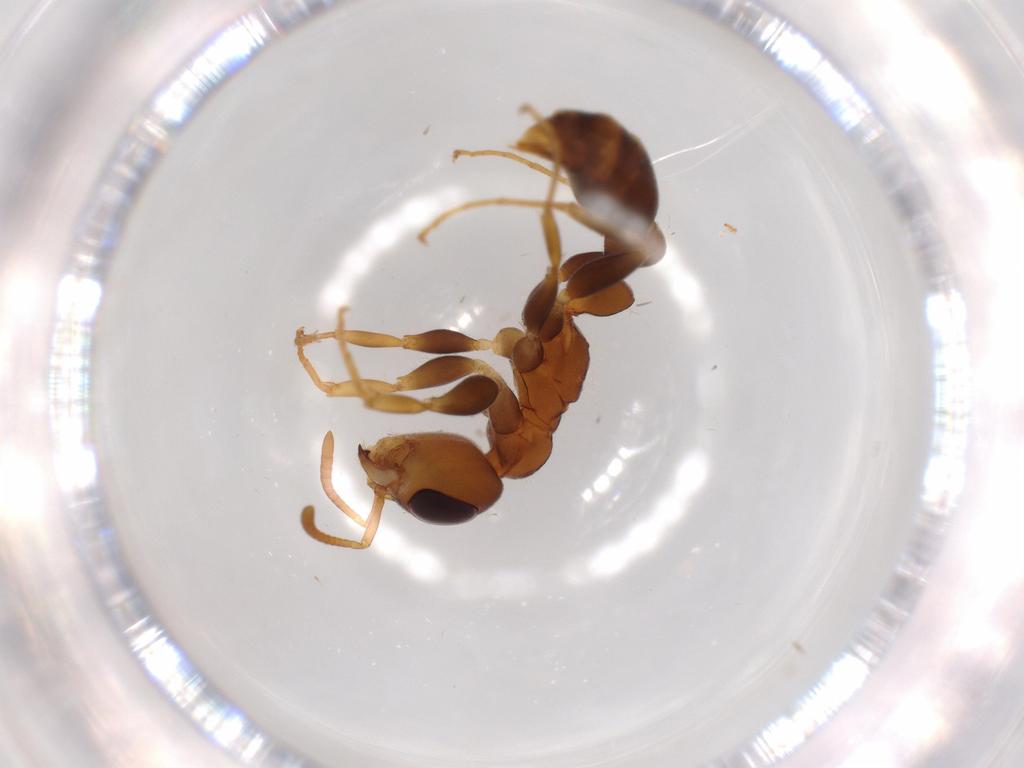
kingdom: Animalia
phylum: Arthropoda
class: Insecta
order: Hymenoptera
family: Formicidae
